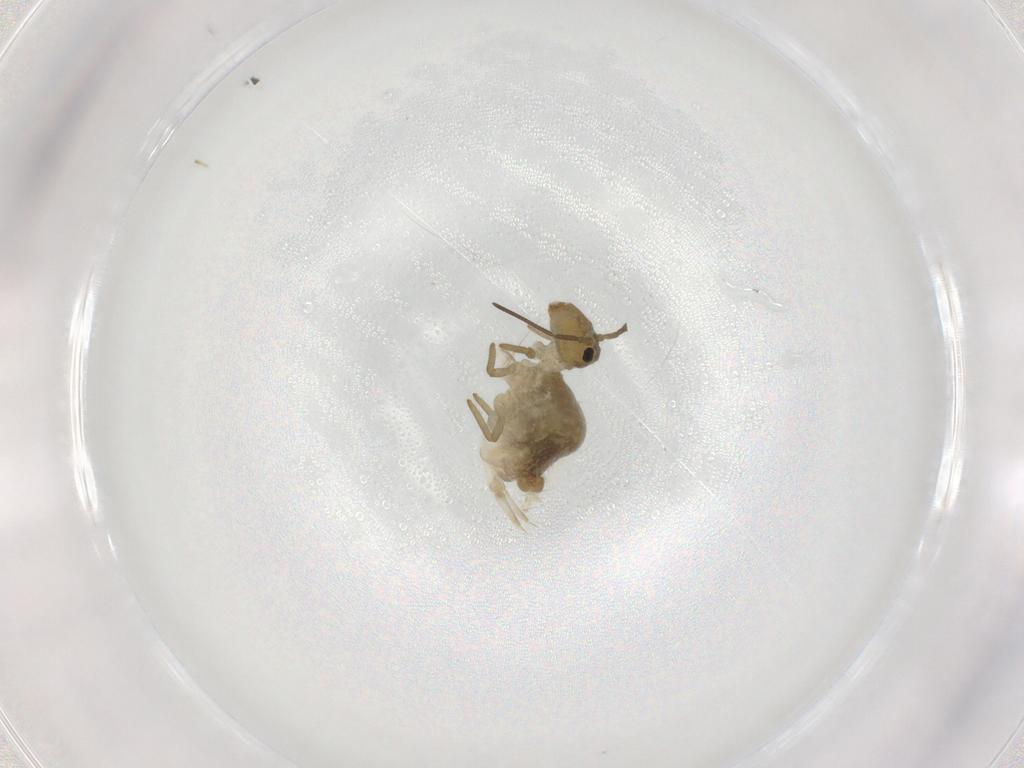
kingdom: Animalia
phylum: Arthropoda
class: Collembola
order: Symphypleona
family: Sminthuridae
